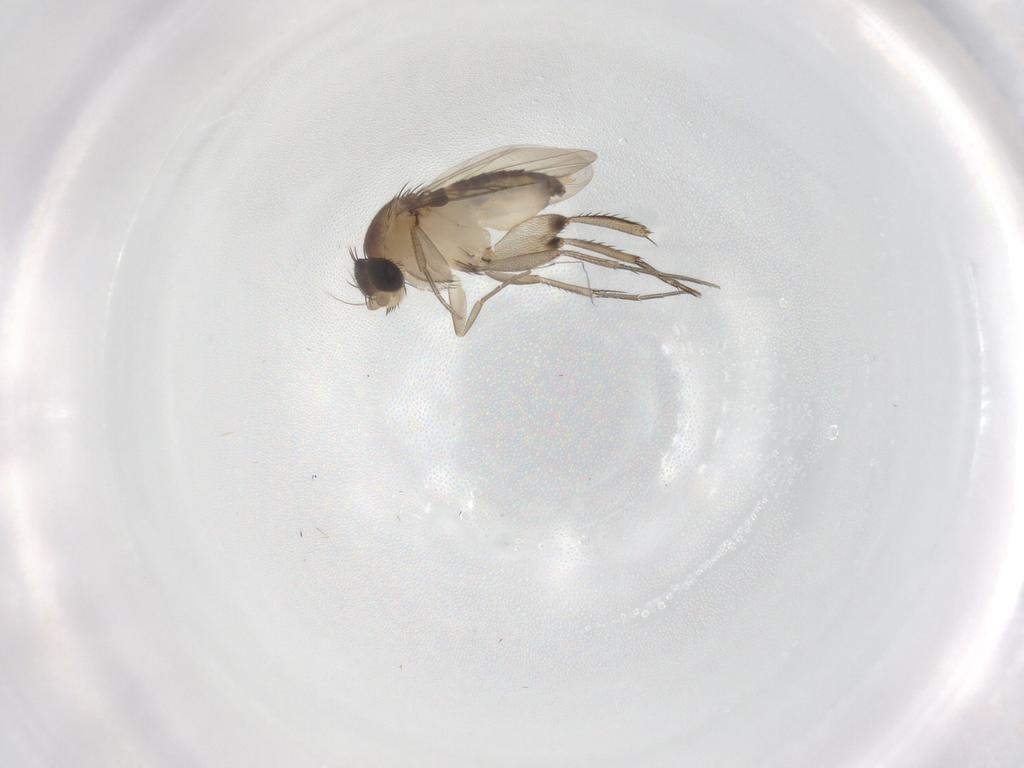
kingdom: Animalia
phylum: Arthropoda
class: Insecta
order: Diptera
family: Phoridae
